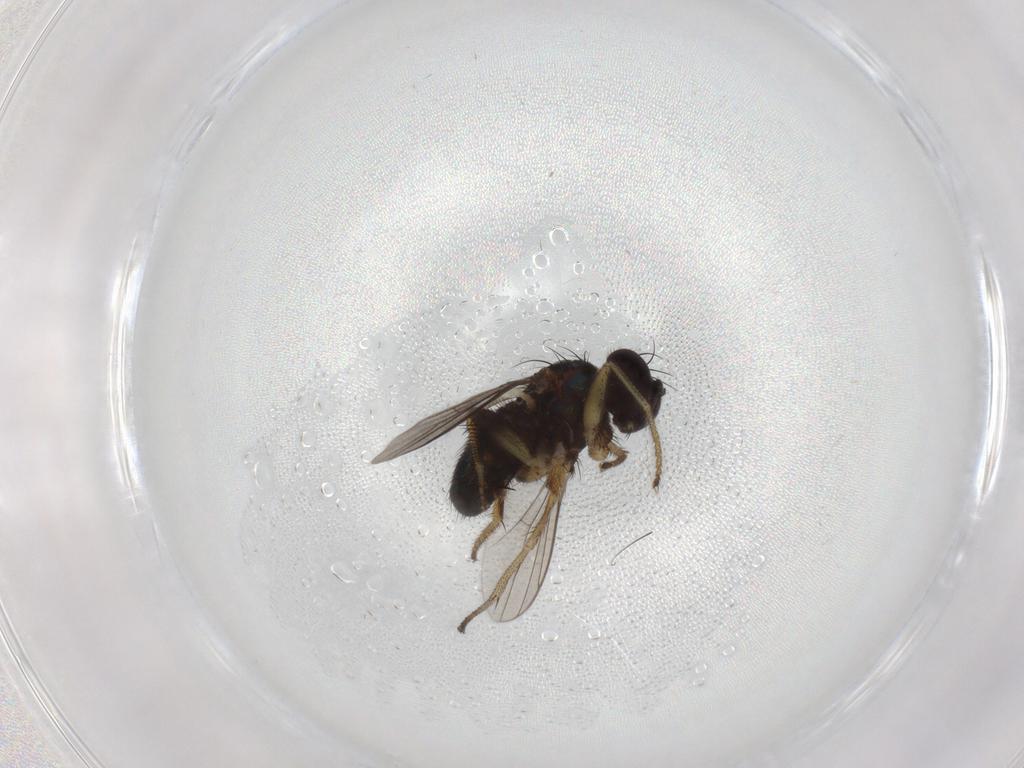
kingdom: Animalia
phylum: Arthropoda
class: Insecta
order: Diptera
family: Dolichopodidae
